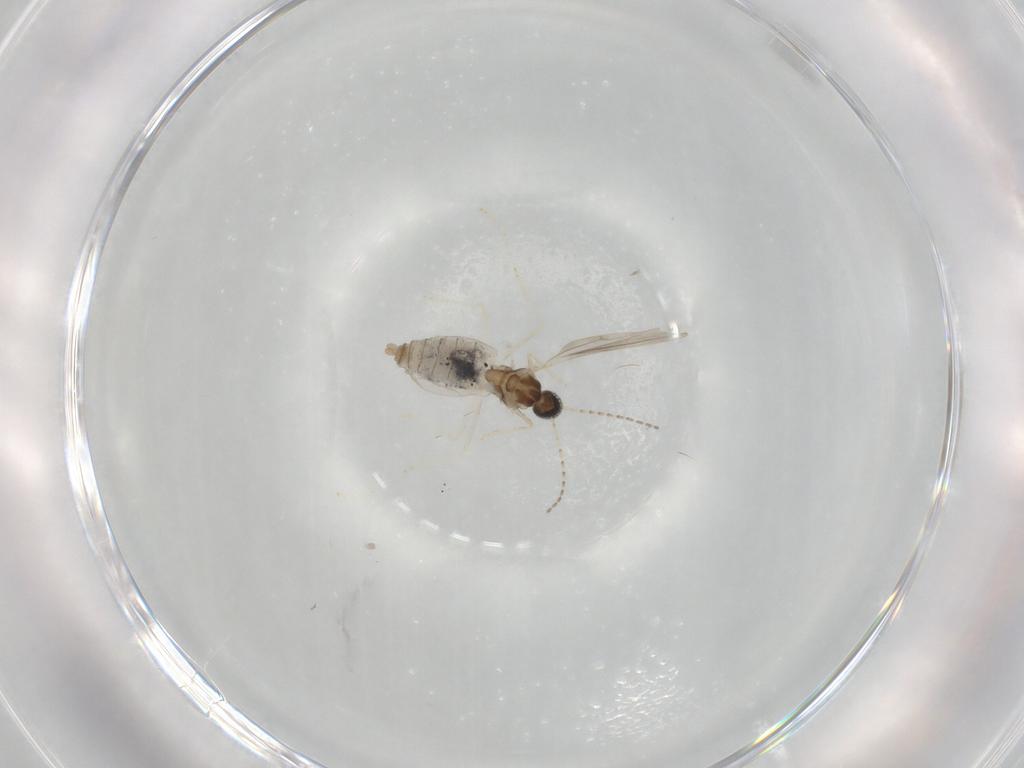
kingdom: Animalia
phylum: Arthropoda
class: Insecta
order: Diptera
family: Cecidomyiidae
